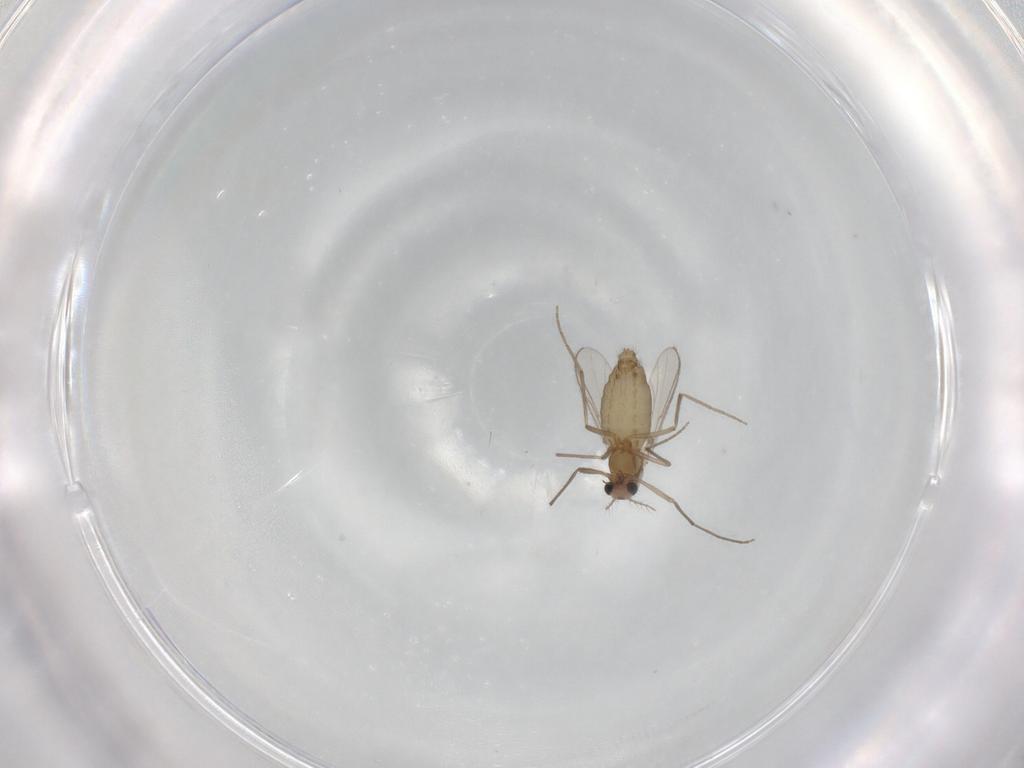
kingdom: Animalia
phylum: Arthropoda
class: Insecta
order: Diptera
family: Chironomidae
